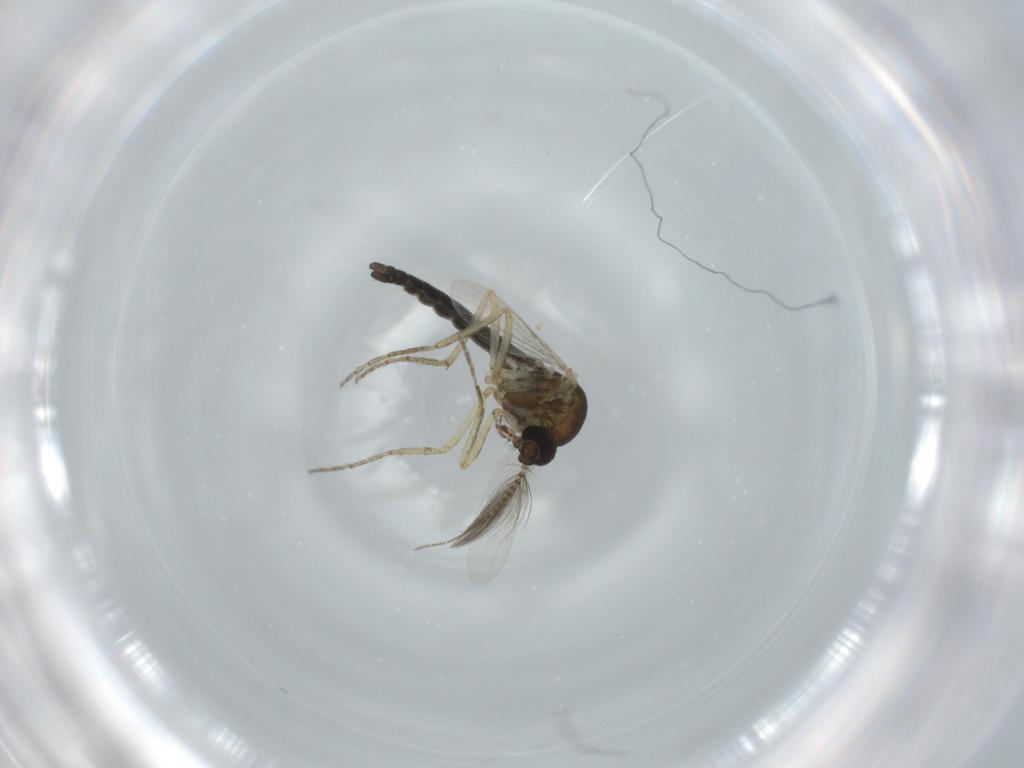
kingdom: Animalia
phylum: Arthropoda
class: Insecta
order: Diptera
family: Ceratopogonidae
